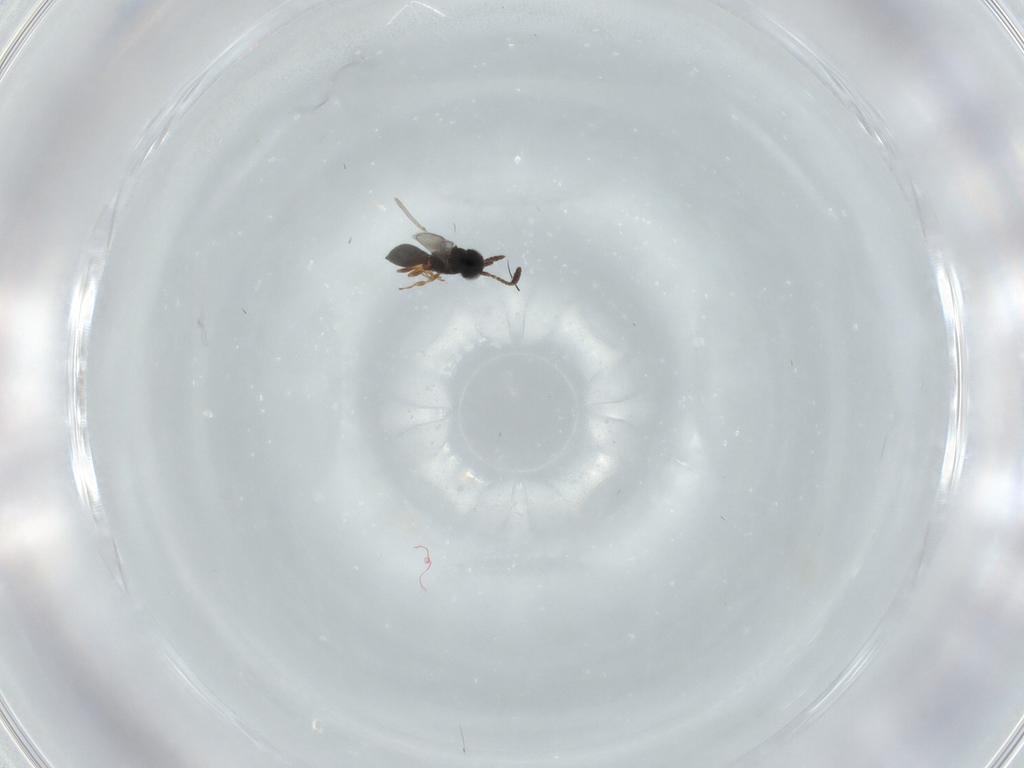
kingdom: Animalia
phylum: Arthropoda
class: Insecta
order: Hymenoptera
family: Scelionidae
